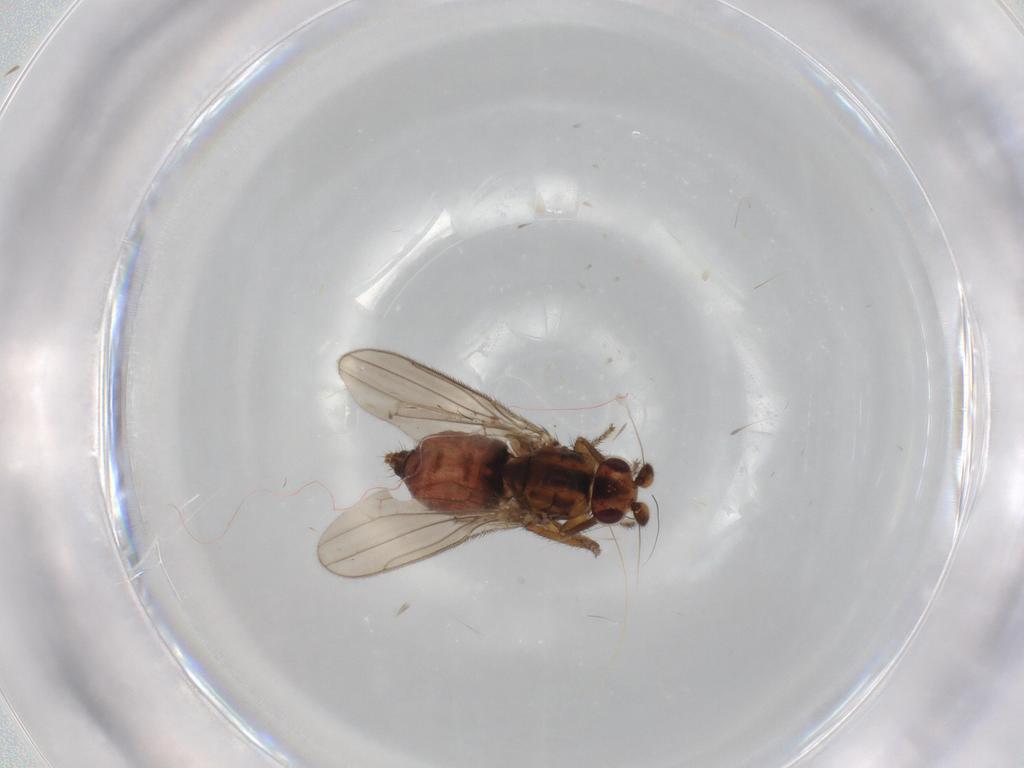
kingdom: Animalia
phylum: Arthropoda
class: Insecta
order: Diptera
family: Sphaeroceridae
